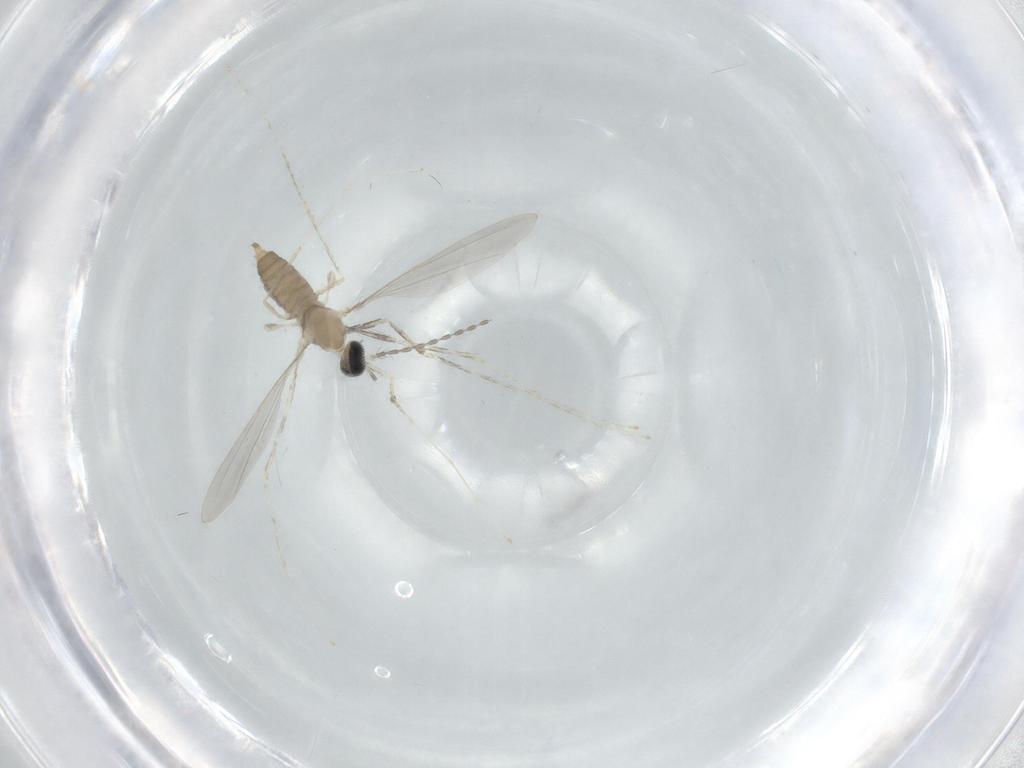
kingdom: Animalia
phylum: Arthropoda
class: Insecta
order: Diptera
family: Cecidomyiidae
